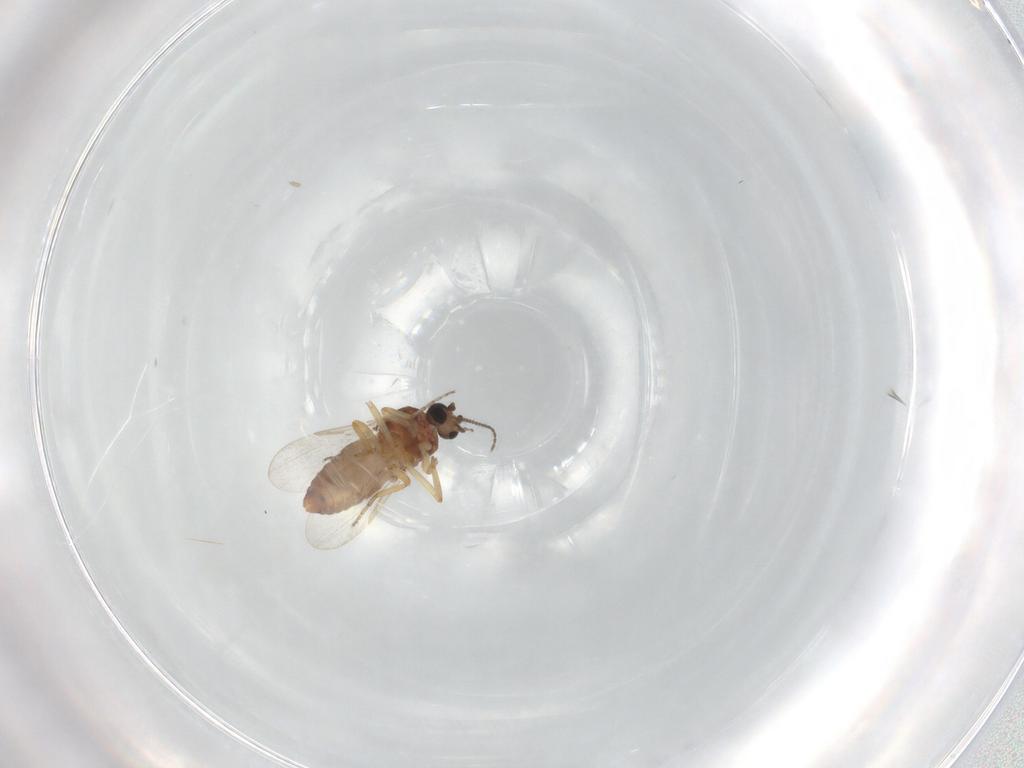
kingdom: Animalia
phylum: Arthropoda
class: Insecta
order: Diptera
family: Ceratopogonidae
